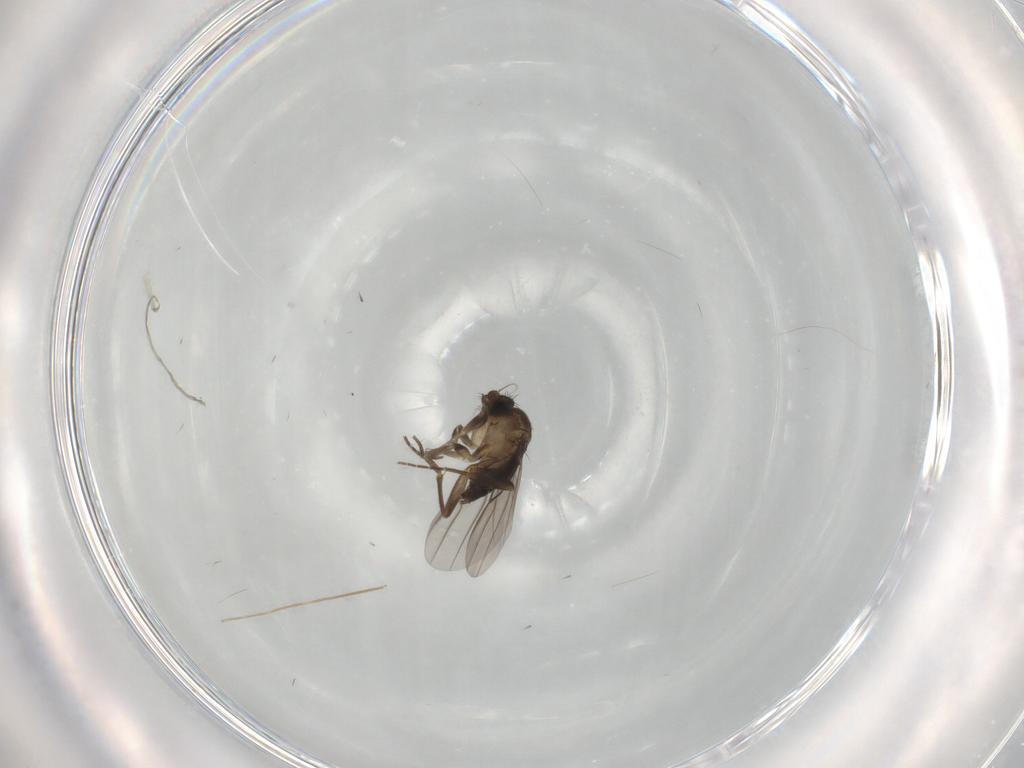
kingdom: Animalia
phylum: Arthropoda
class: Insecta
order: Diptera
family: Chironomidae
